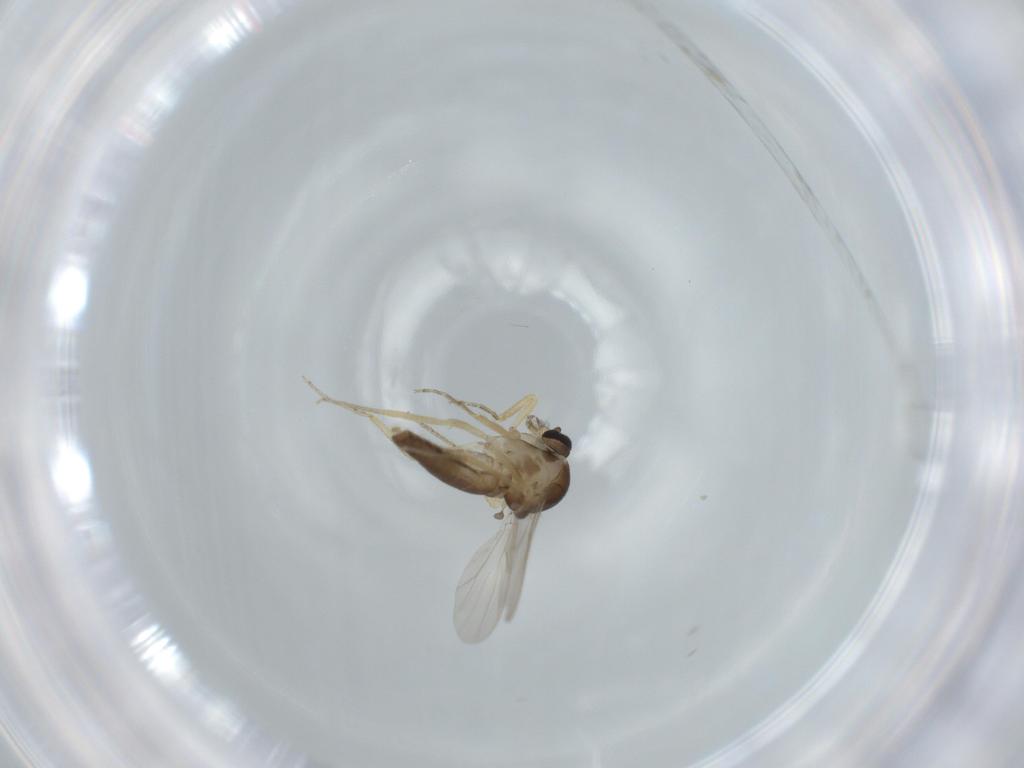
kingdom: Animalia
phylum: Arthropoda
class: Insecta
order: Diptera
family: Ceratopogonidae
